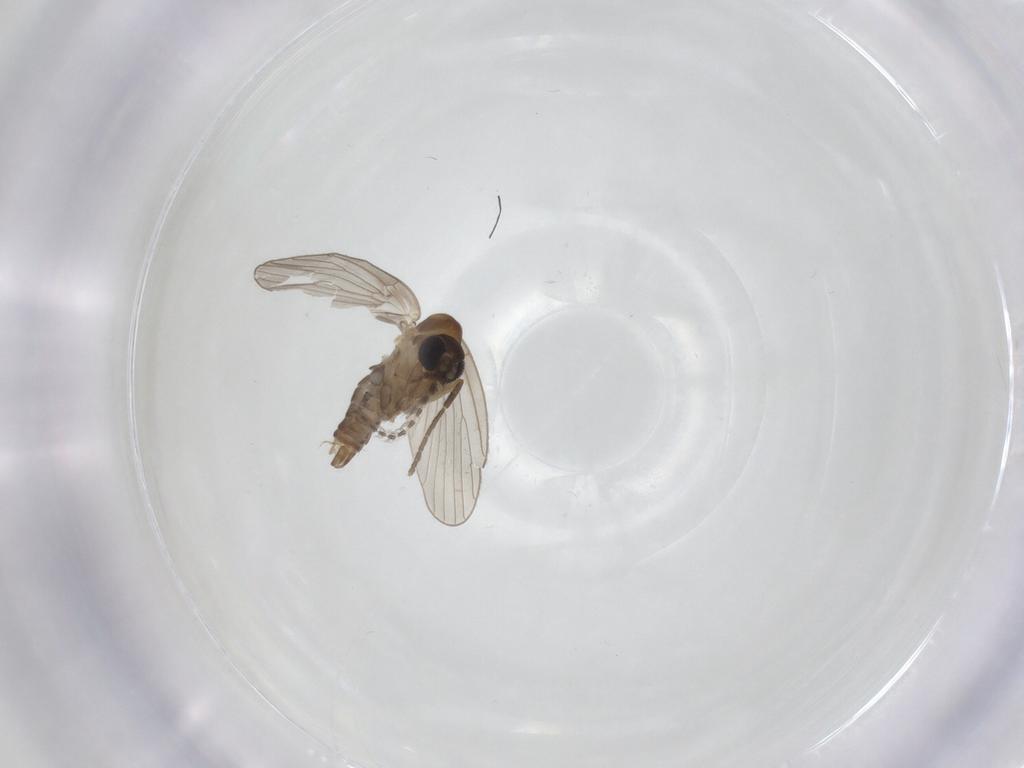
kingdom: Animalia
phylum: Arthropoda
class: Insecta
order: Diptera
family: Psychodidae
